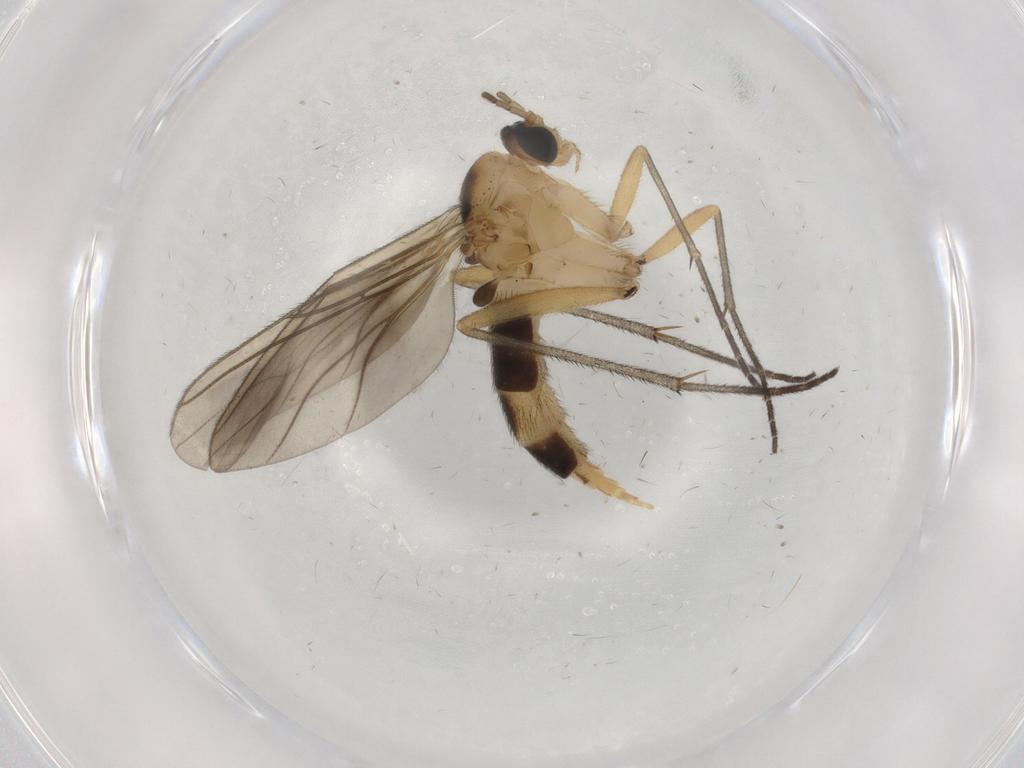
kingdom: Animalia
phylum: Arthropoda
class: Insecta
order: Diptera
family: Sciaridae
